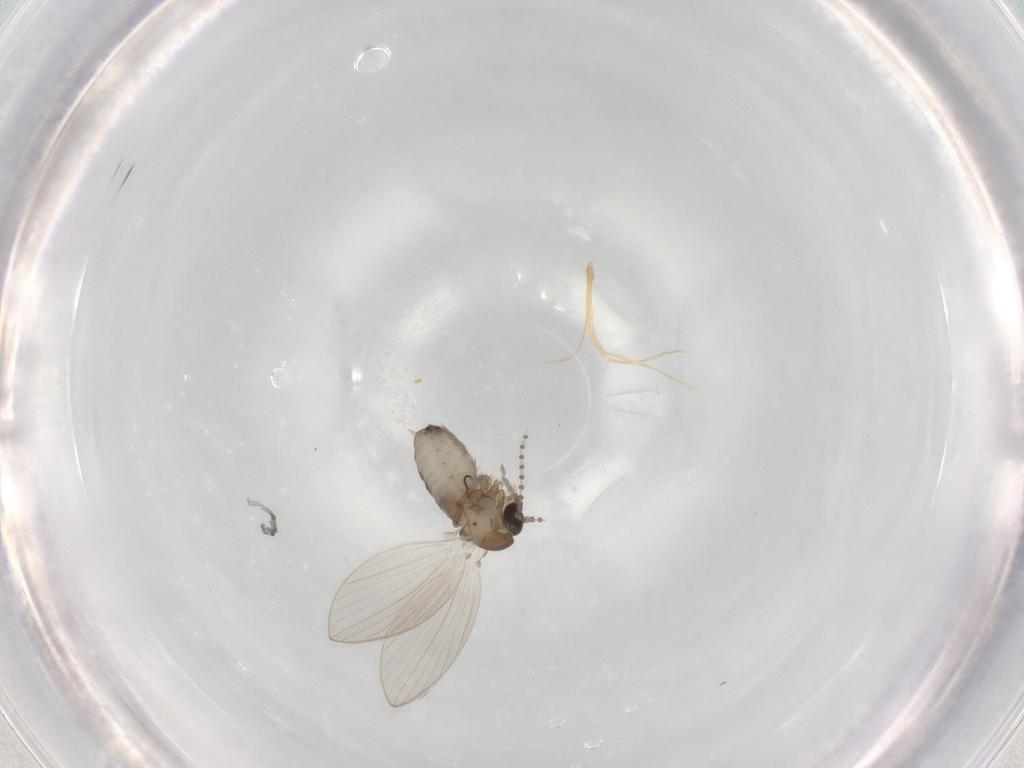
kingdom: Animalia
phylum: Arthropoda
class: Insecta
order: Diptera
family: Psychodidae
